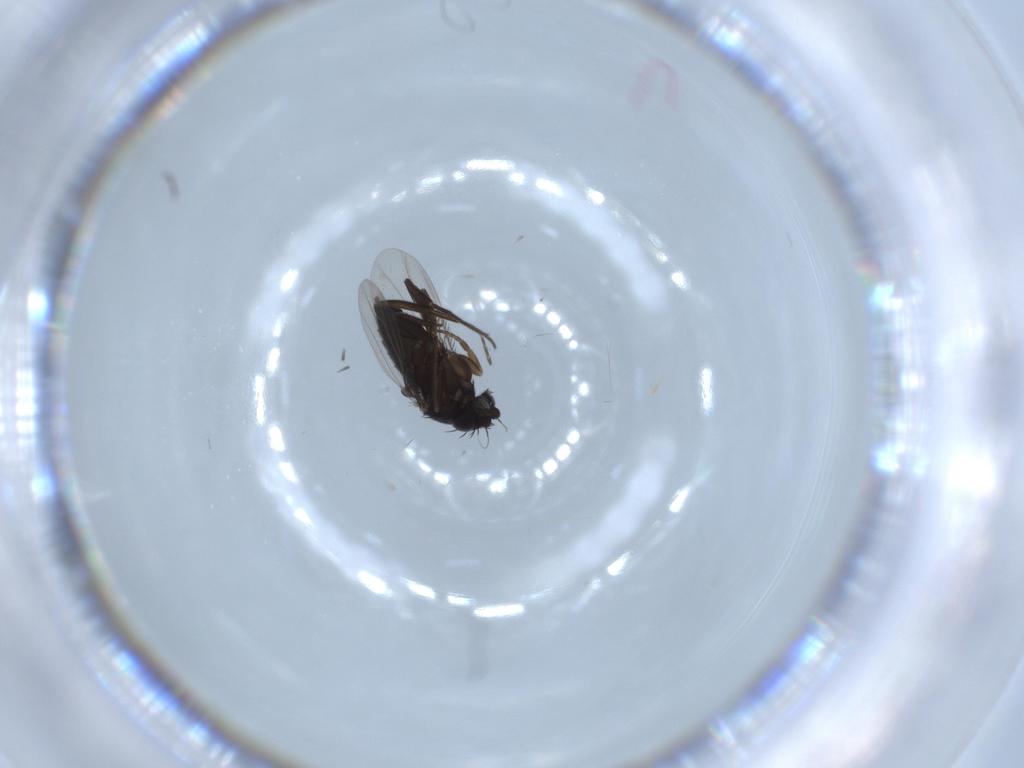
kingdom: Animalia
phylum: Arthropoda
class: Insecta
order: Diptera
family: Phoridae
